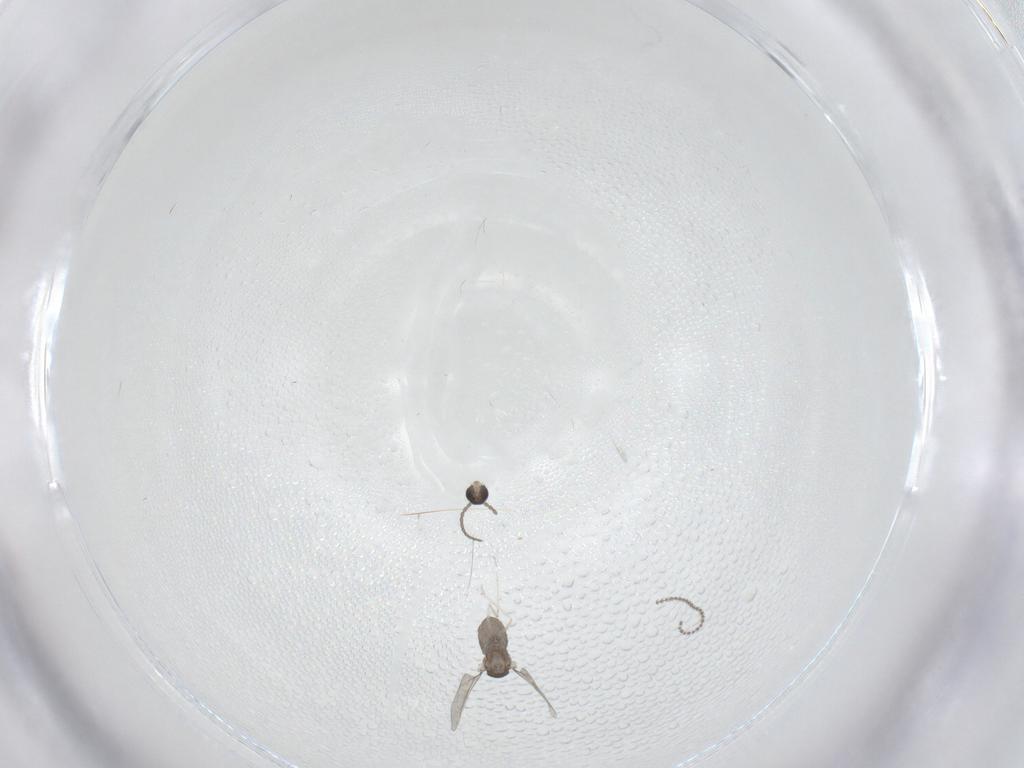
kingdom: Animalia
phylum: Arthropoda
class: Insecta
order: Diptera
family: Cecidomyiidae
